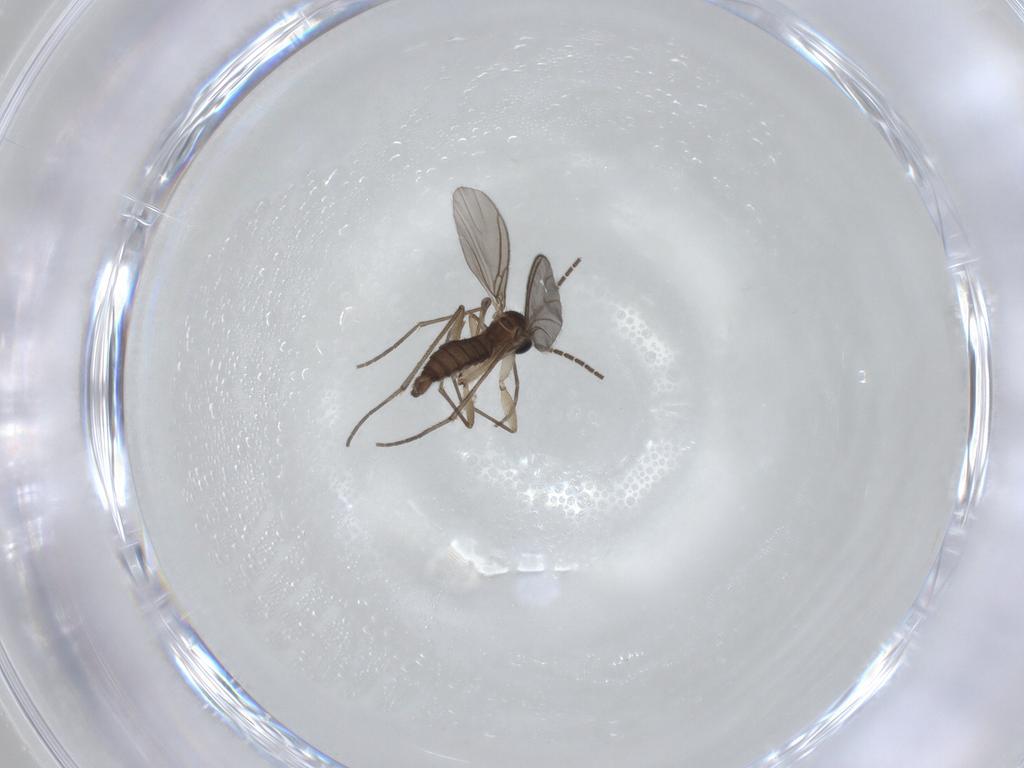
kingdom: Animalia
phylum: Arthropoda
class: Insecta
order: Diptera
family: Sciaridae
